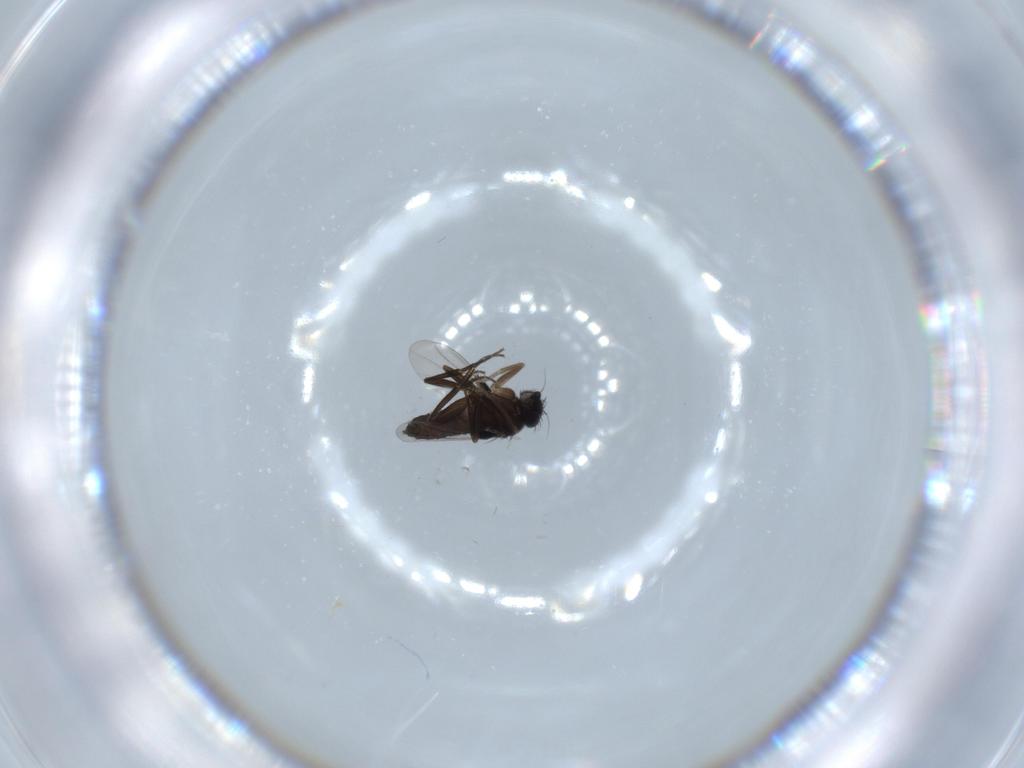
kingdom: Animalia
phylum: Arthropoda
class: Insecta
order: Diptera
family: Phoridae
